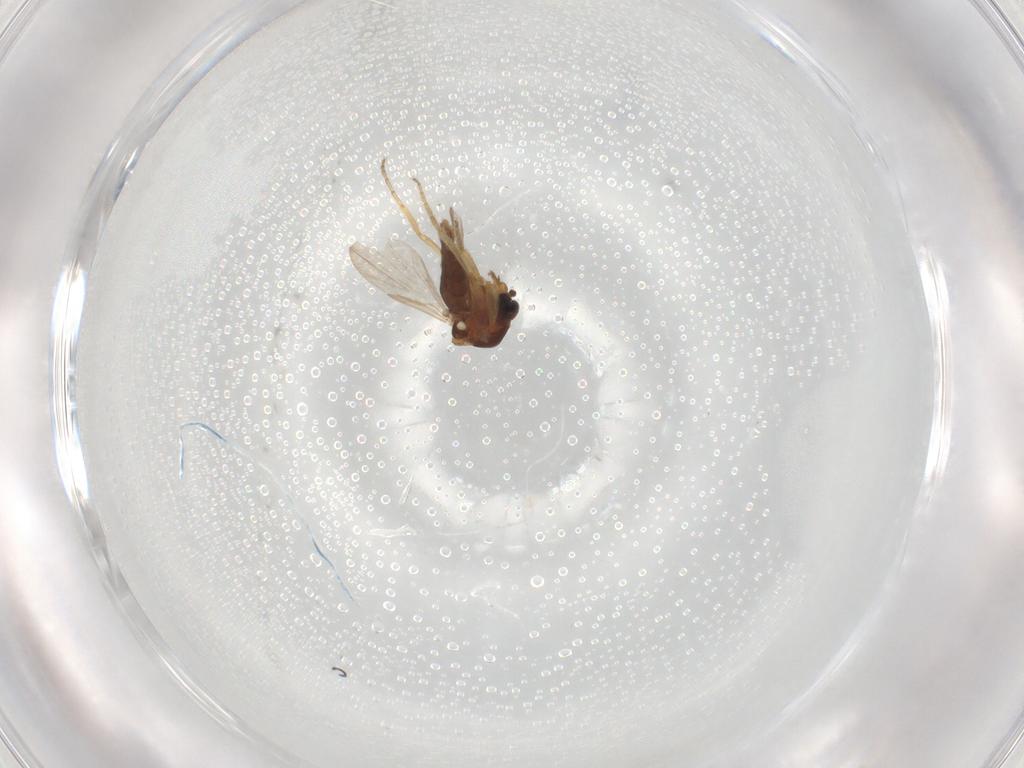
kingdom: Animalia
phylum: Arthropoda
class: Insecta
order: Diptera
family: Ceratopogonidae
